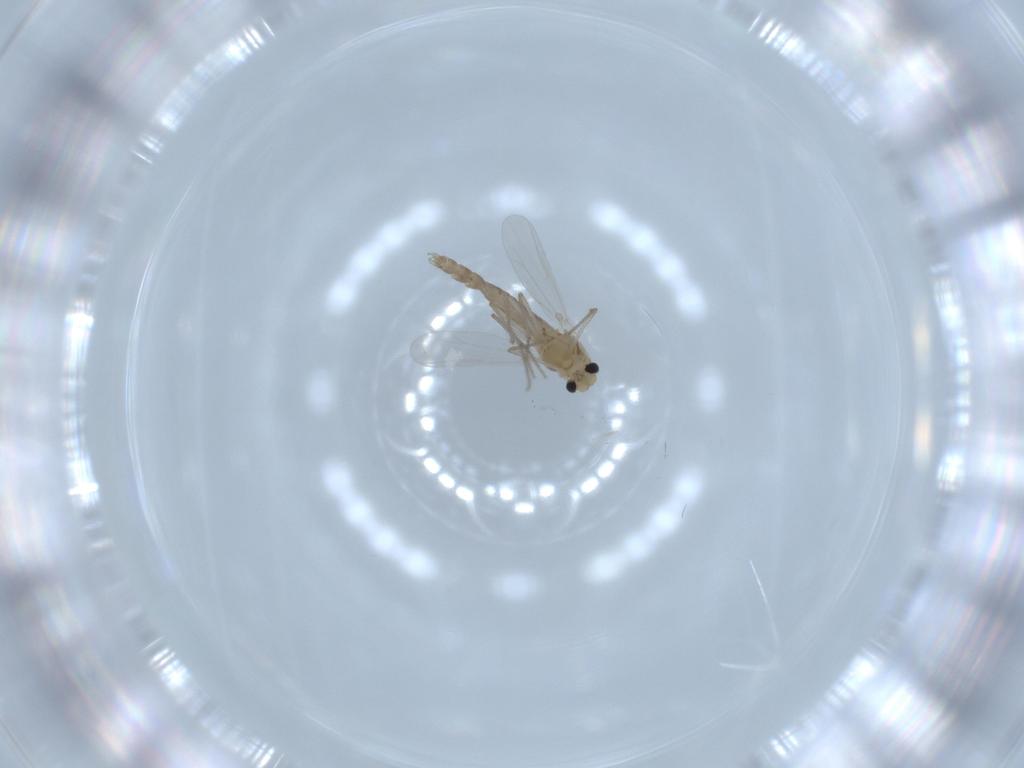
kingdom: Animalia
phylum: Arthropoda
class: Insecta
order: Diptera
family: Chironomidae
